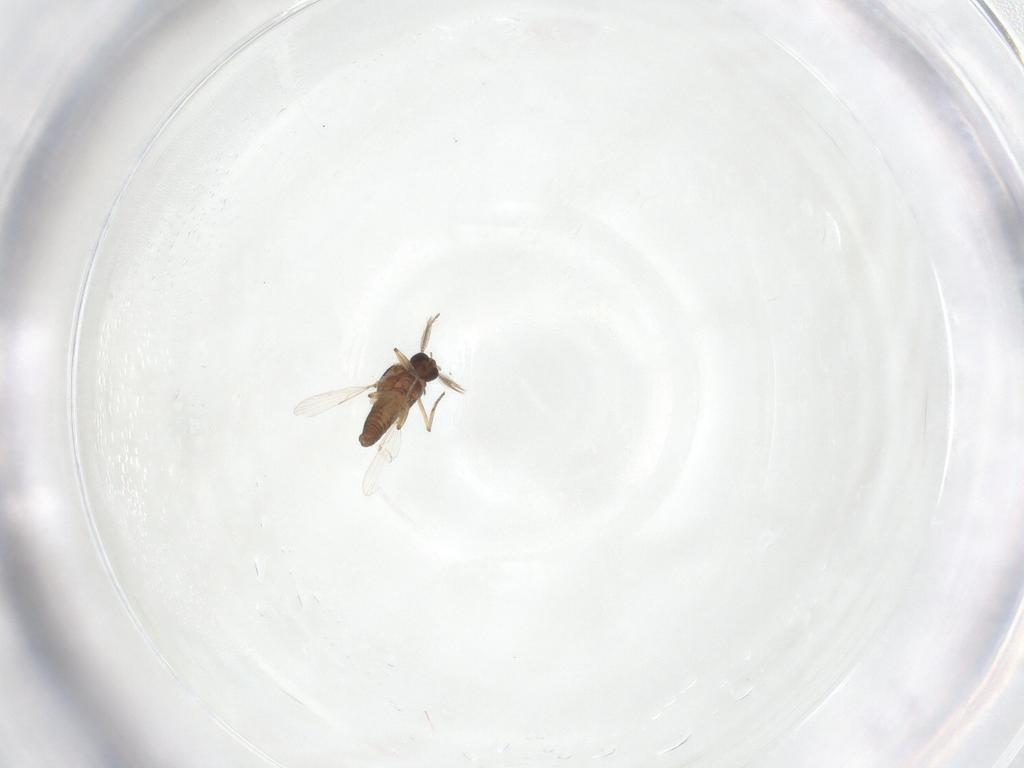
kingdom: Animalia
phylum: Arthropoda
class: Insecta
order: Diptera
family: Ceratopogonidae
